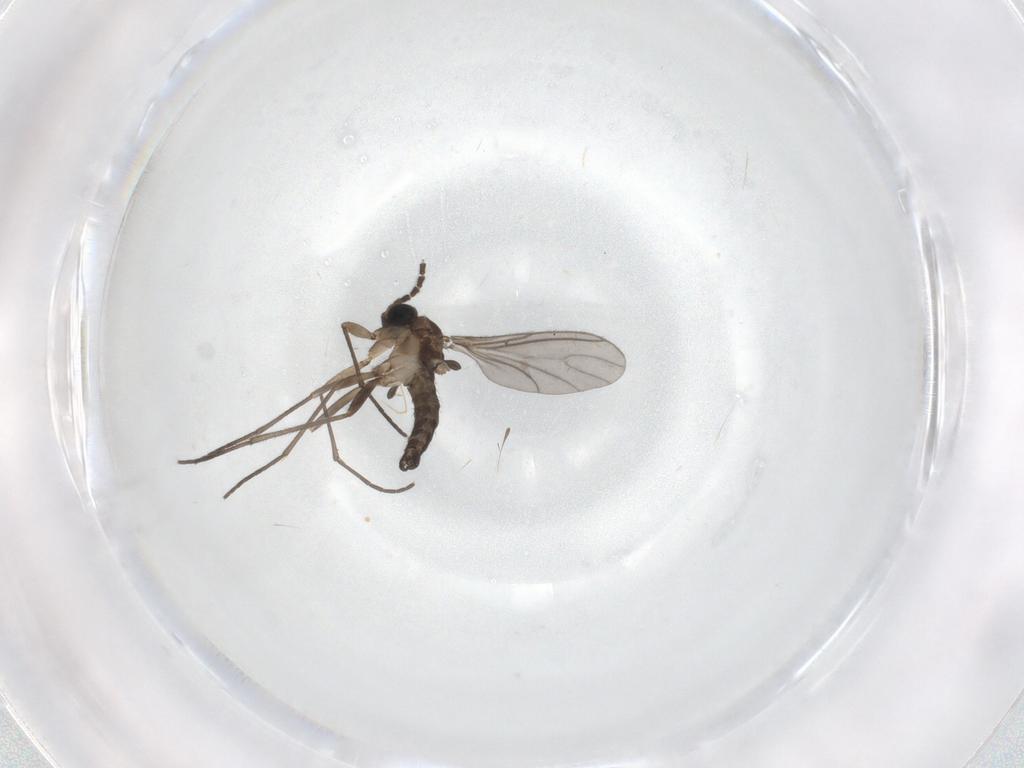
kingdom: Animalia
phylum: Arthropoda
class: Insecta
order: Diptera
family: Sciaridae
